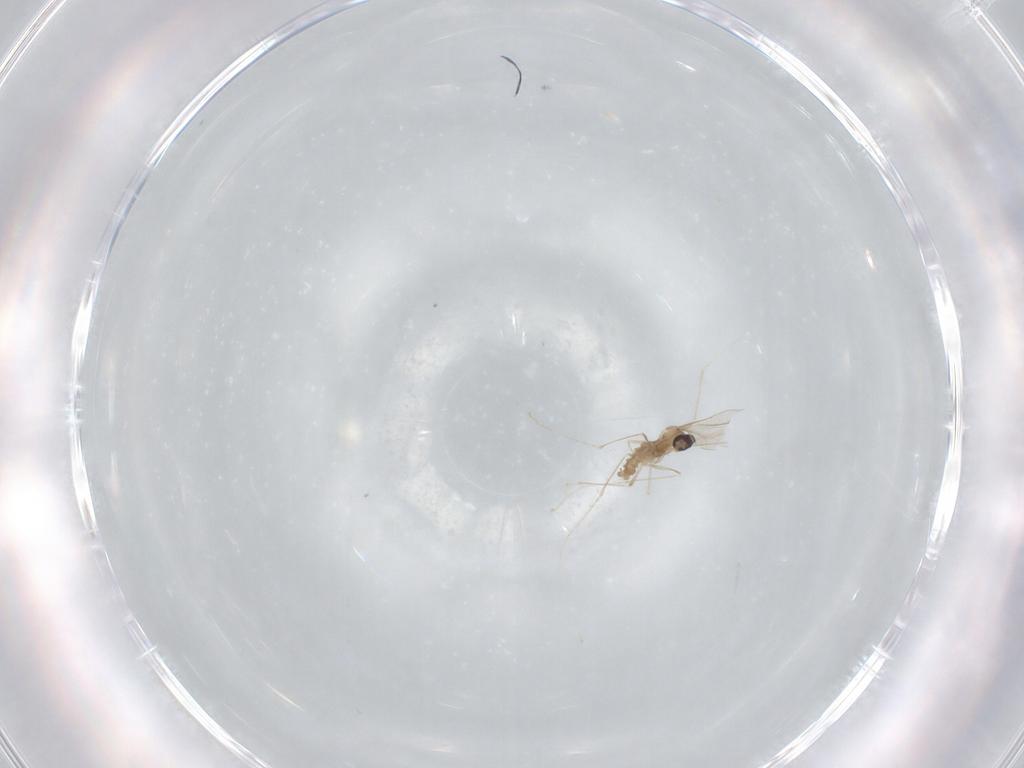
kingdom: Animalia
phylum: Arthropoda
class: Insecta
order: Diptera
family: Cecidomyiidae
